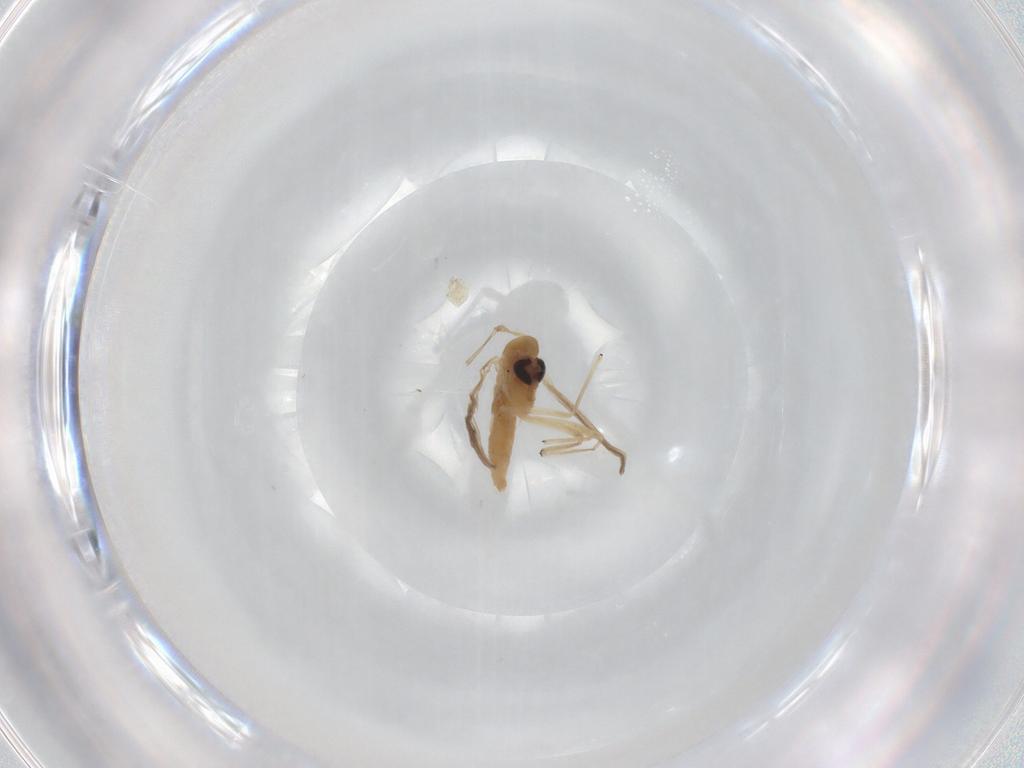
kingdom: Animalia
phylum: Arthropoda
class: Insecta
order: Diptera
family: Chironomidae
